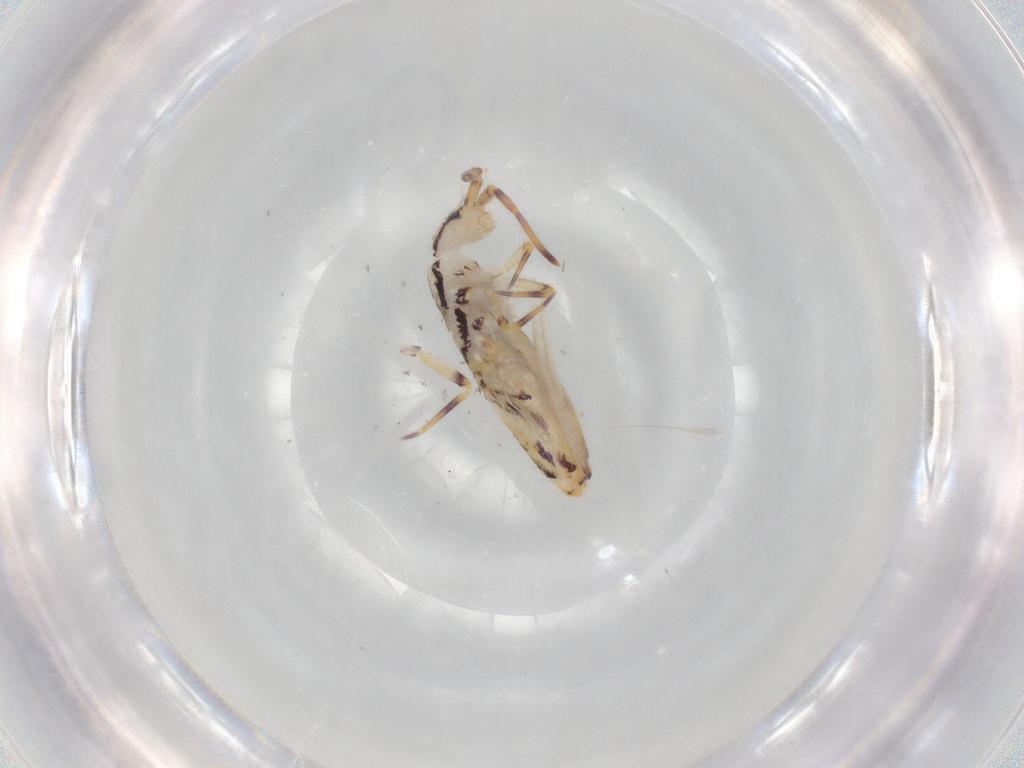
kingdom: Animalia
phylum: Arthropoda
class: Collembola
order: Entomobryomorpha
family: Entomobryidae
